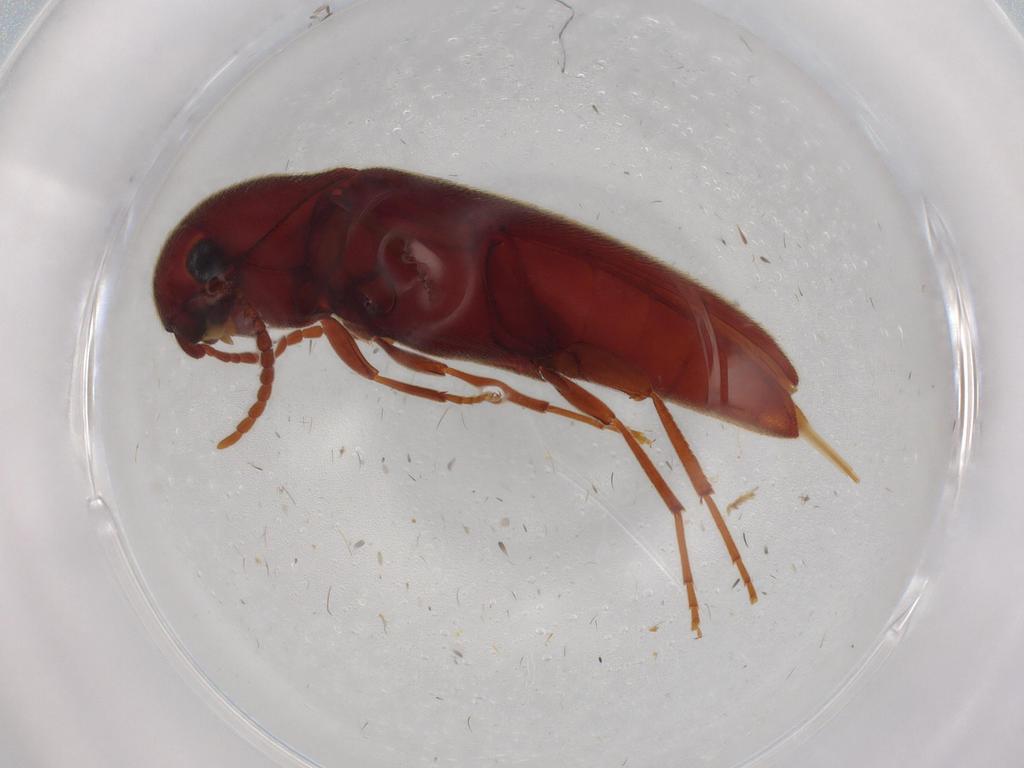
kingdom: Animalia
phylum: Arthropoda
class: Insecta
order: Coleoptera
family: Eucnemidae
